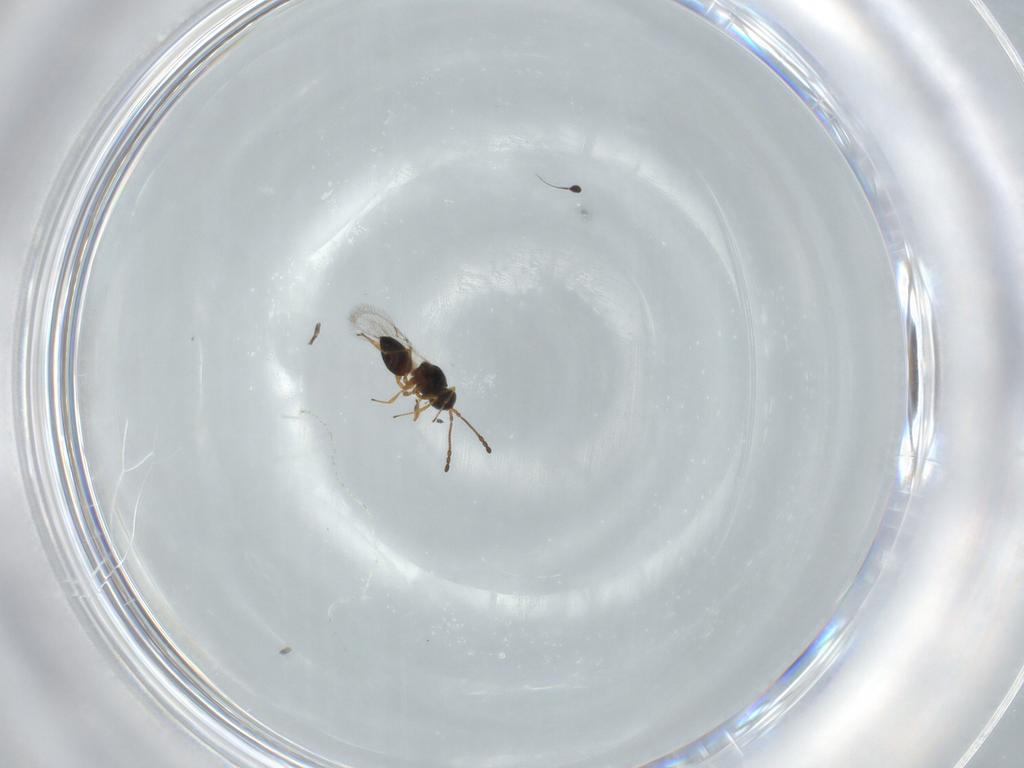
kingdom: Animalia
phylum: Arthropoda
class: Insecta
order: Hymenoptera
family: Figitidae
